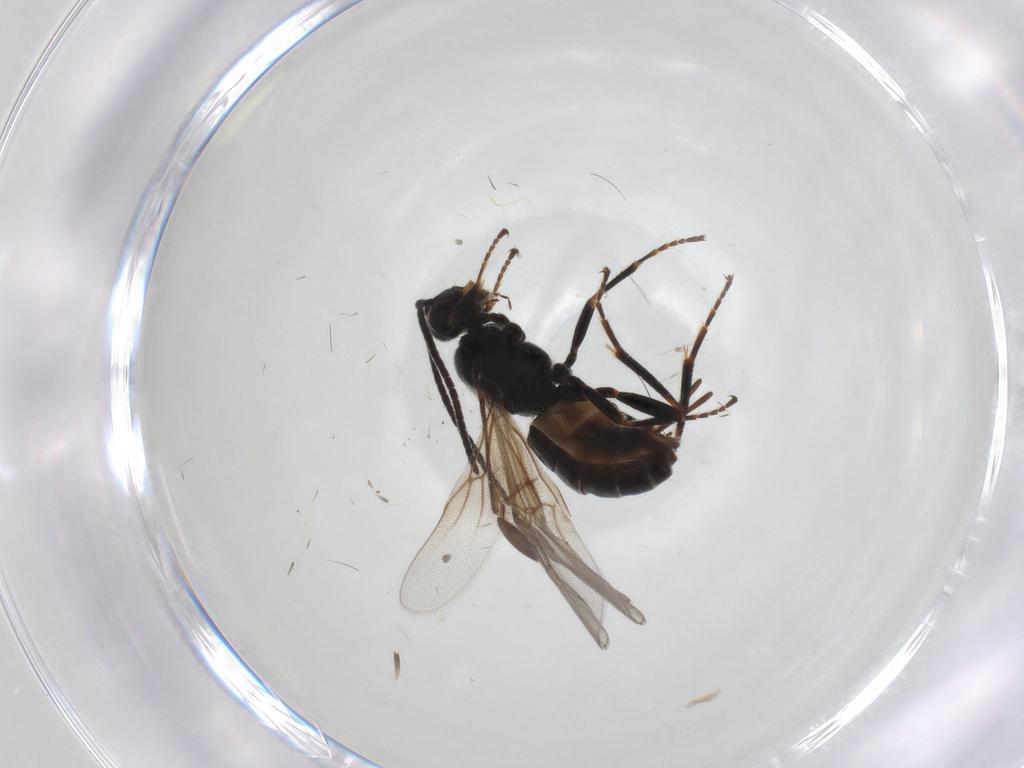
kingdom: Animalia
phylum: Arthropoda
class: Insecta
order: Hymenoptera
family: Braconidae
